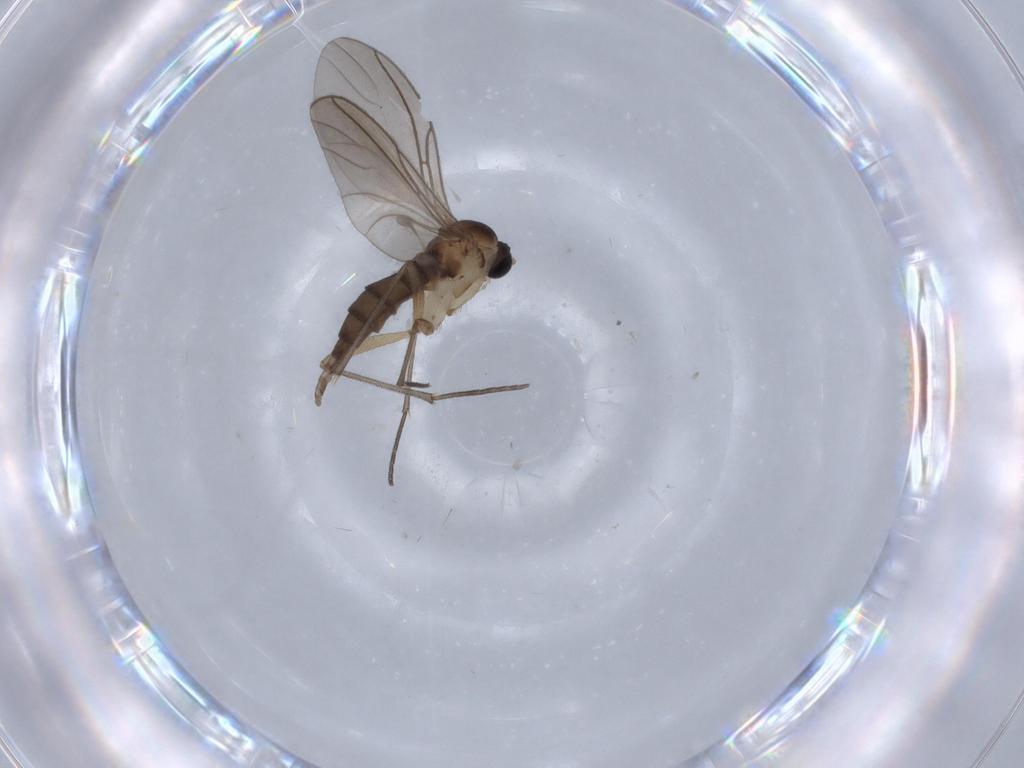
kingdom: Animalia
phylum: Arthropoda
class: Insecta
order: Diptera
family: Sciaridae
